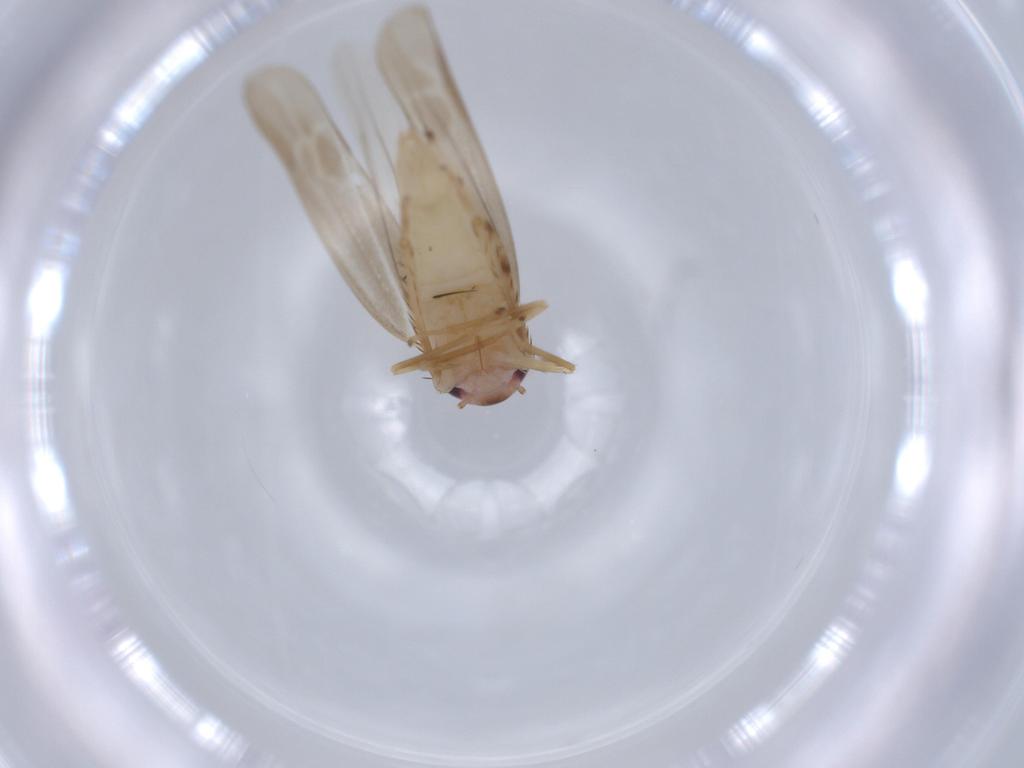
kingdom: Animalia
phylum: Arthropoda
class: Insecta
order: Hemiptera
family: Cicadellidae
